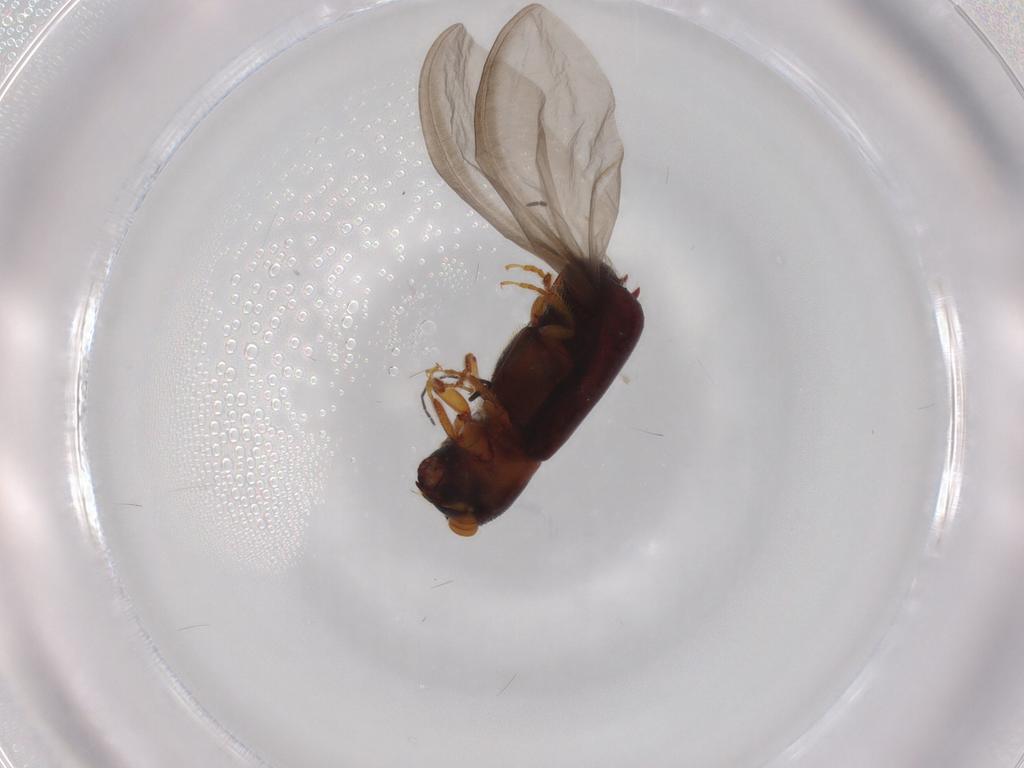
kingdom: Animalia
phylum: Arthropoda
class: Insecta
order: Coleoptera
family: Curculionidae
